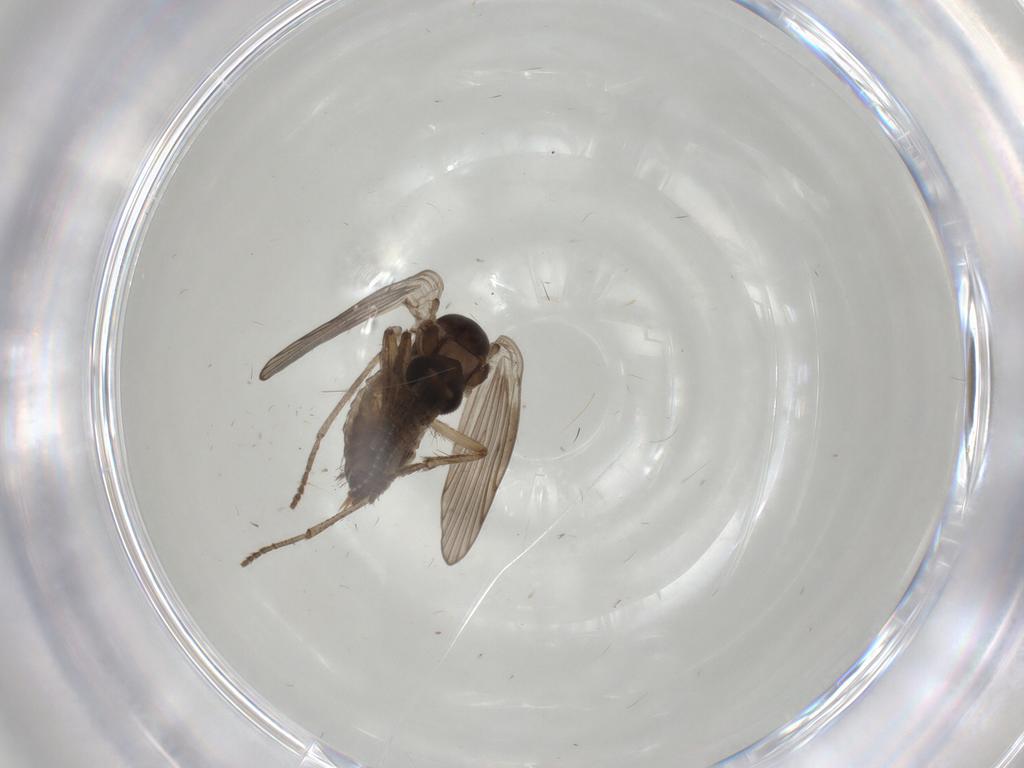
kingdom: Animalia
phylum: Arthropoda
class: Insecta
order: Diptera
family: Psychodidae
